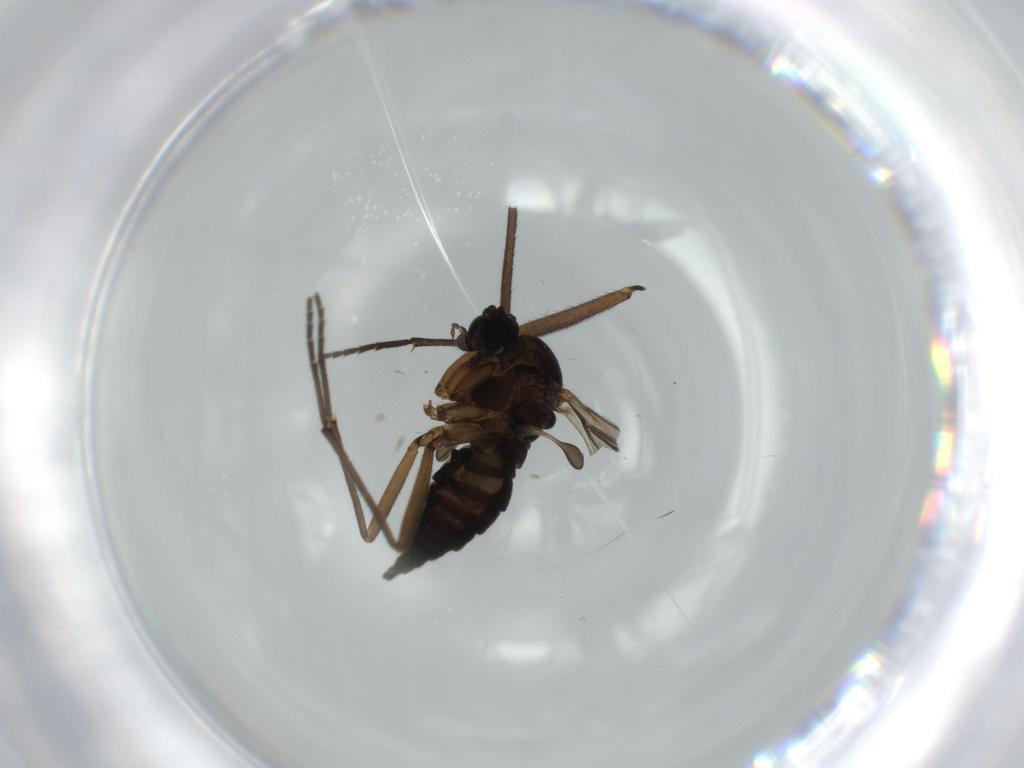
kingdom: Animalia
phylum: Arthropoda
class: Insecta
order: Diptera
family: Sciaridae
